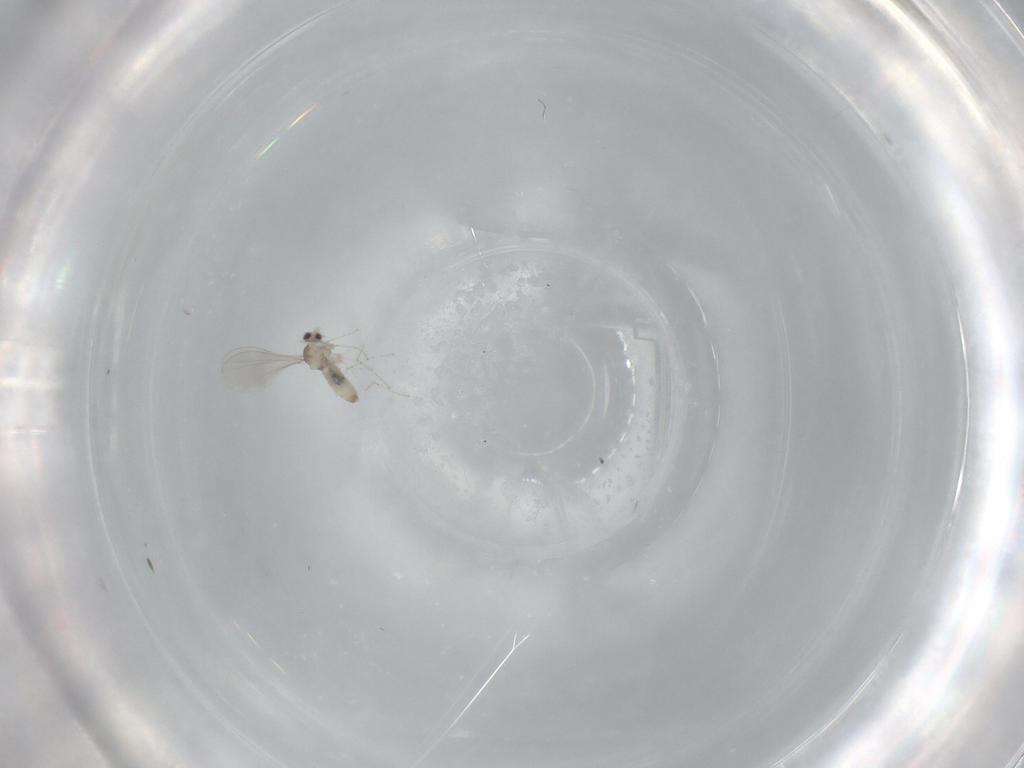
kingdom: Animalia
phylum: Arthropoda
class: Insecta
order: Diptera
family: Cecidomyiidae
